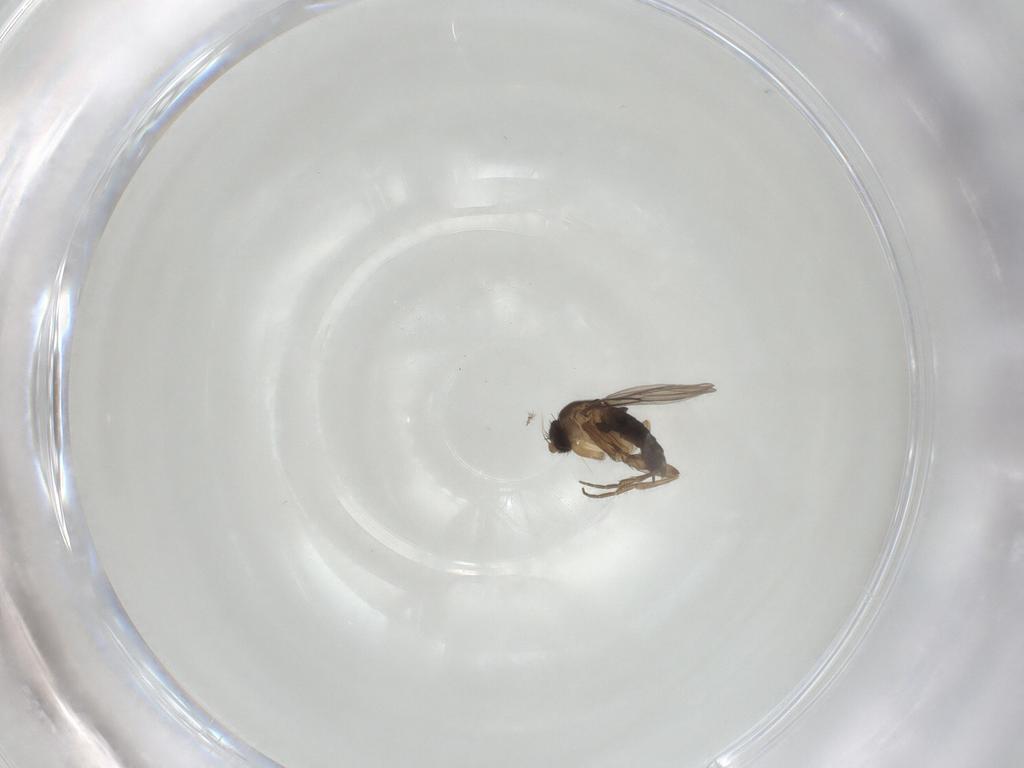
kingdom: Animalia
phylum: Arthropoda
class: Insecta
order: Diptera
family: Phoridae
